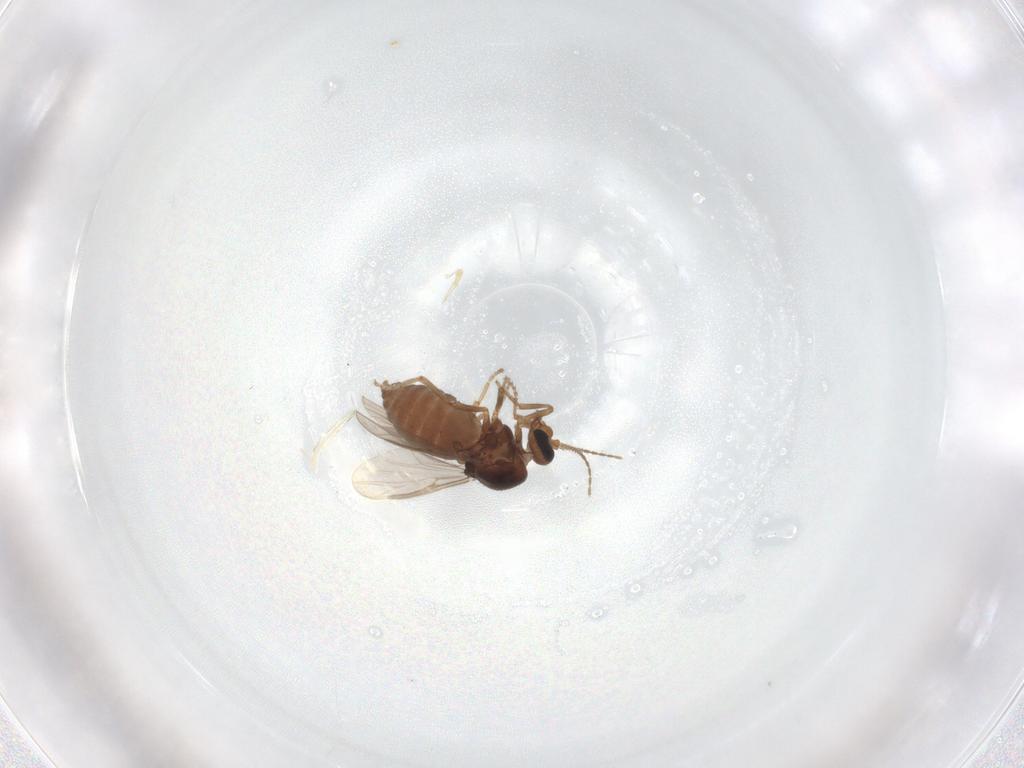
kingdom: Animalia
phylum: Arthropoda
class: Insecta
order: Diptera
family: Ceratopogonidae
